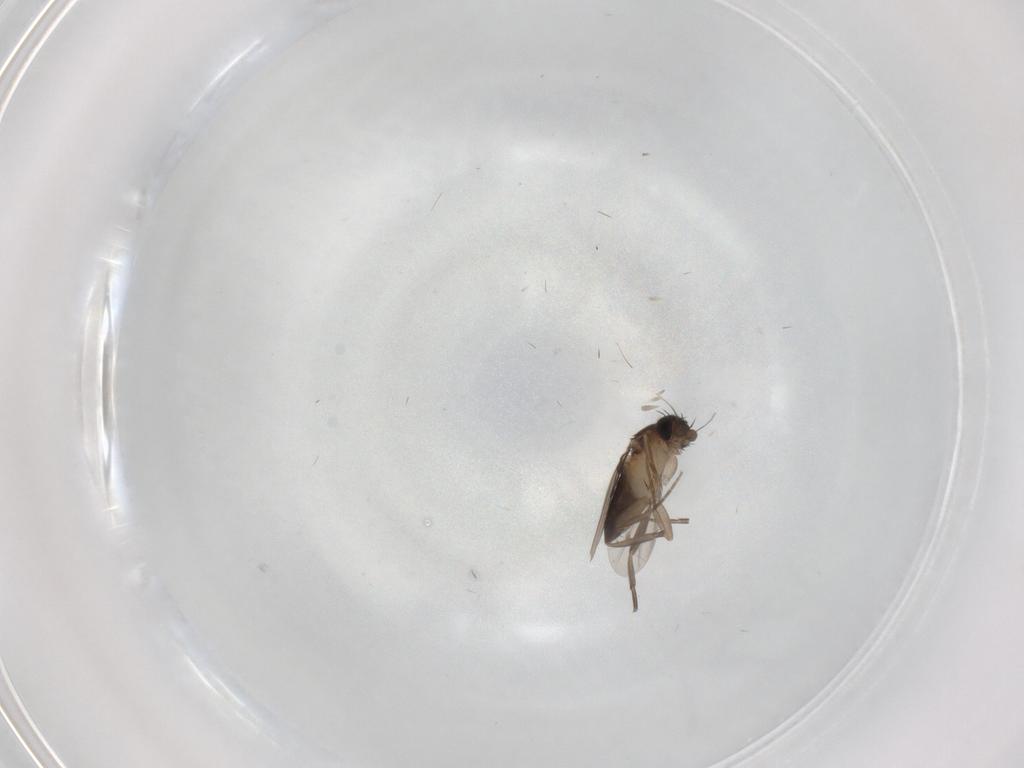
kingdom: Animalia
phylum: Arthropoda
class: Insecta
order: Diptera
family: Phoridae
